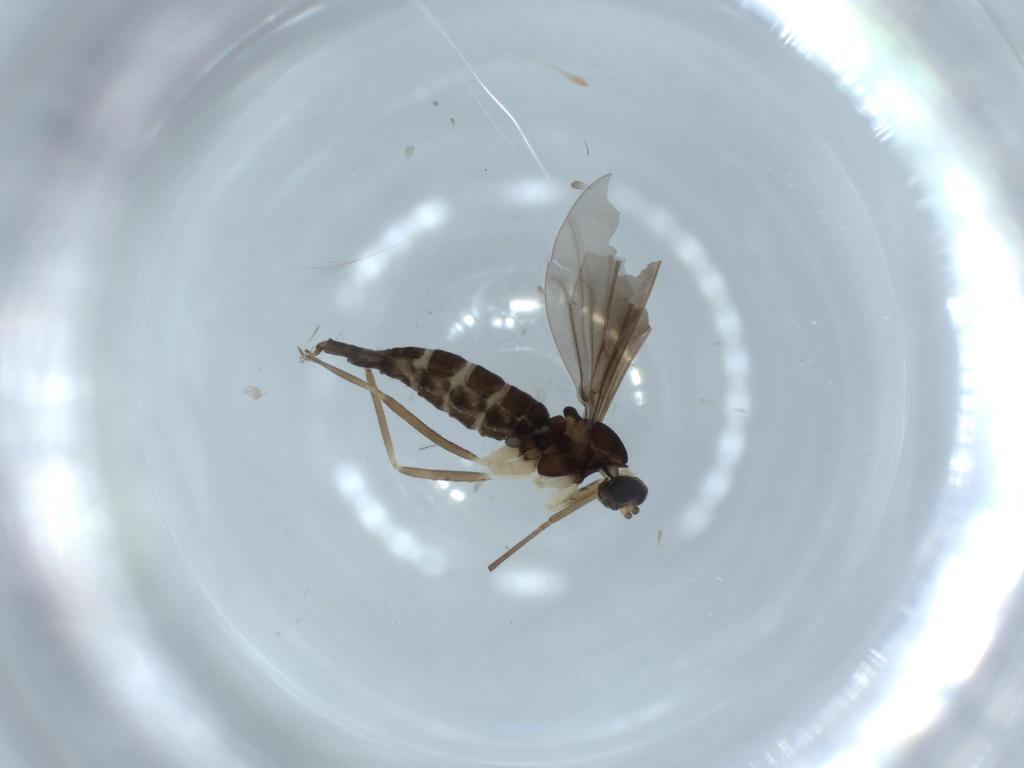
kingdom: Animalia
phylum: Arthropoda
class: Insecta
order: Diptera
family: Cecidomyiidae
